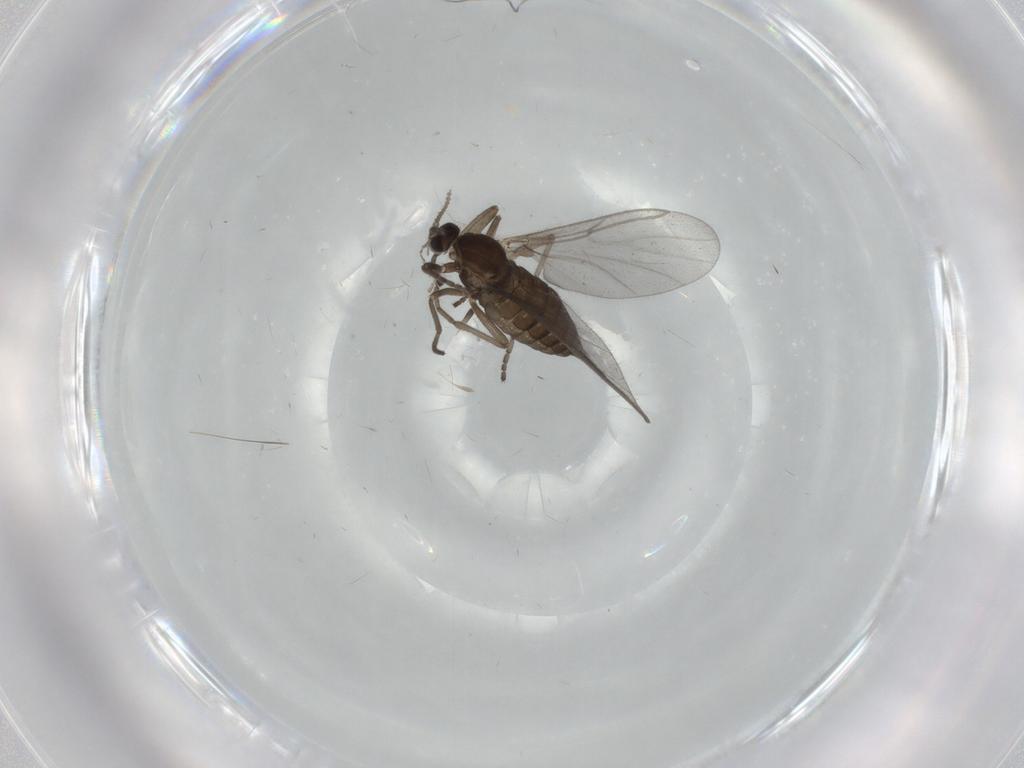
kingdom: Animalia
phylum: Arthropoda
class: Insecta
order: Diptera
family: Cecidomyiidae
